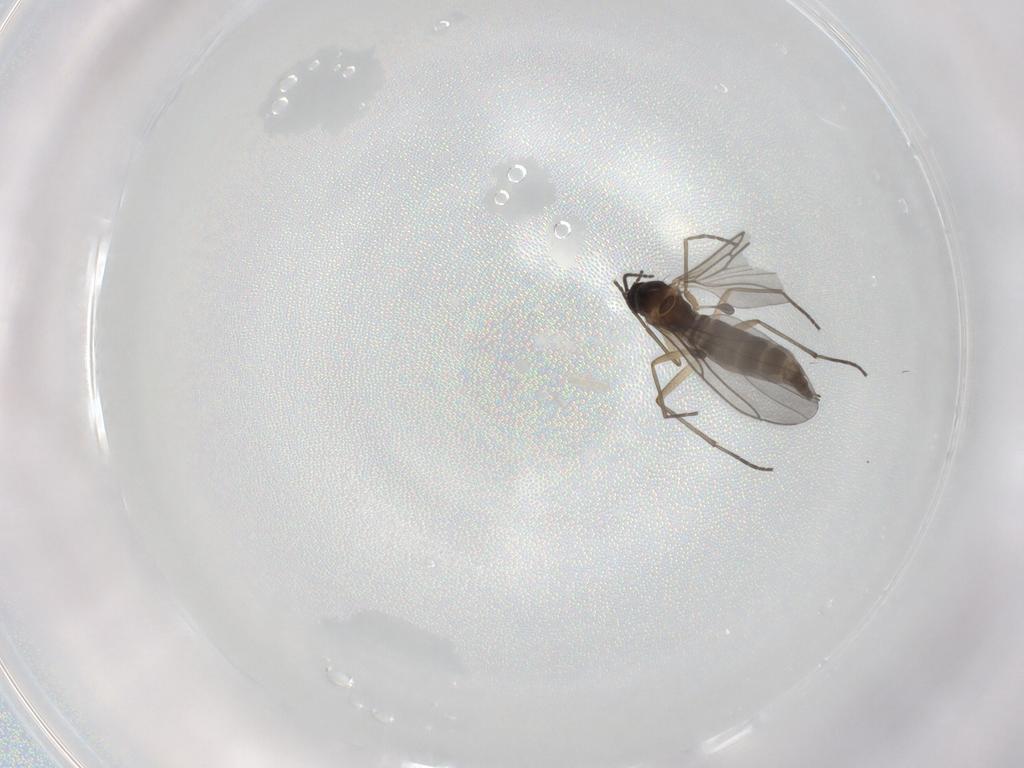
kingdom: Animalia
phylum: Arthropoda
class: Insecta
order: Diptera
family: Sciaridae
